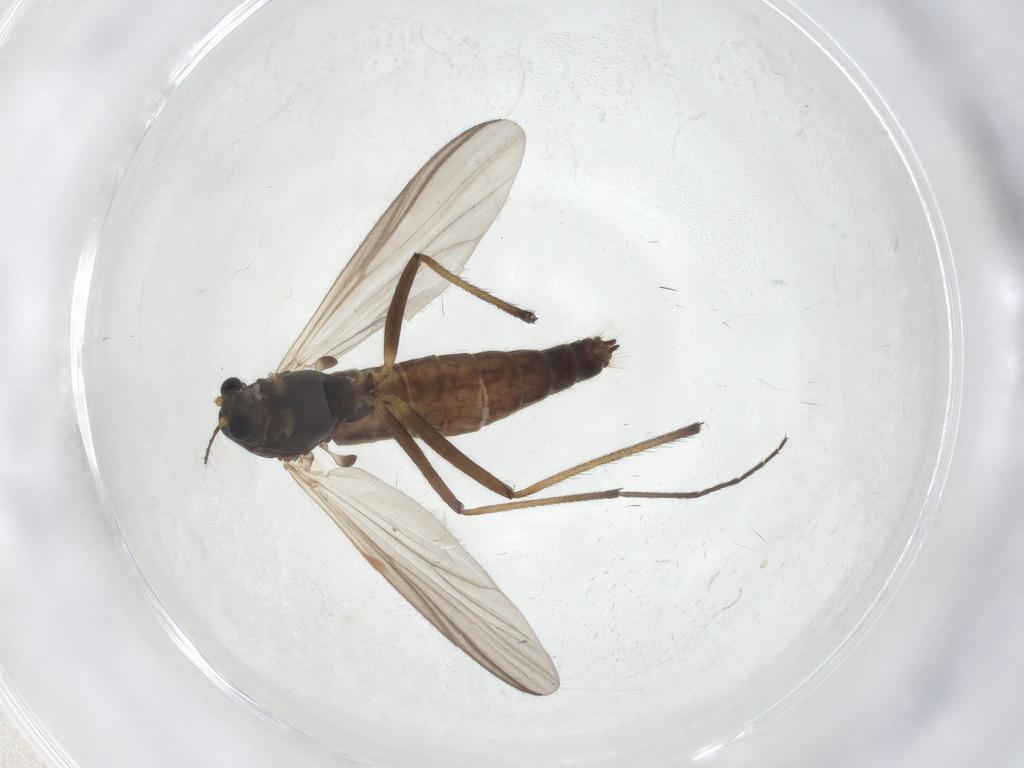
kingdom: Animalia
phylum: Arthropoda
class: Insecta
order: Diptera
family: Chironomidae
